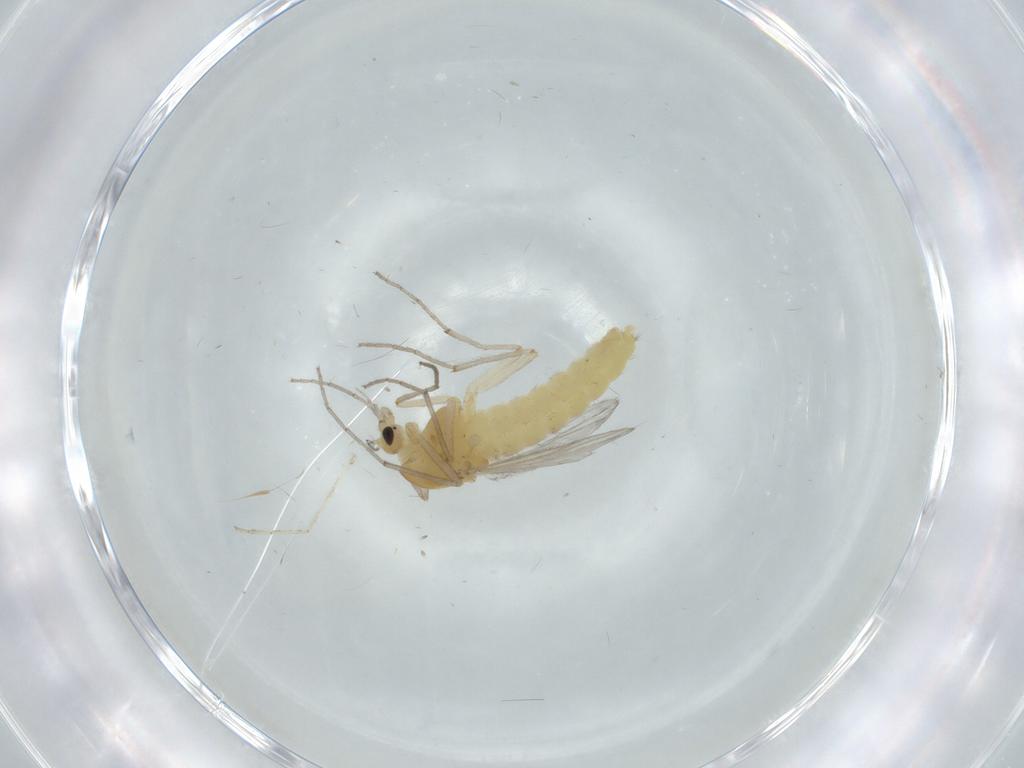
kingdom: Animalia
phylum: Arthropoda
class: Insecta
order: Diptera
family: Chironomidae
